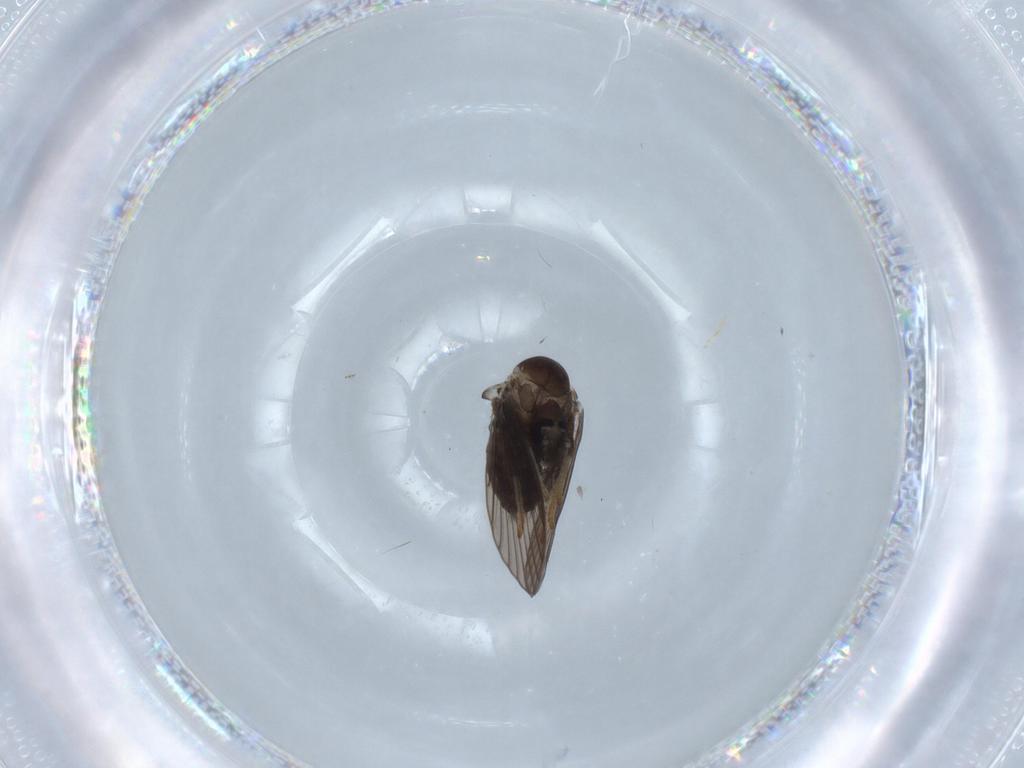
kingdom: Animalia
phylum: Arthropoda
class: Insecta
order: Diptera
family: Psychodidae
